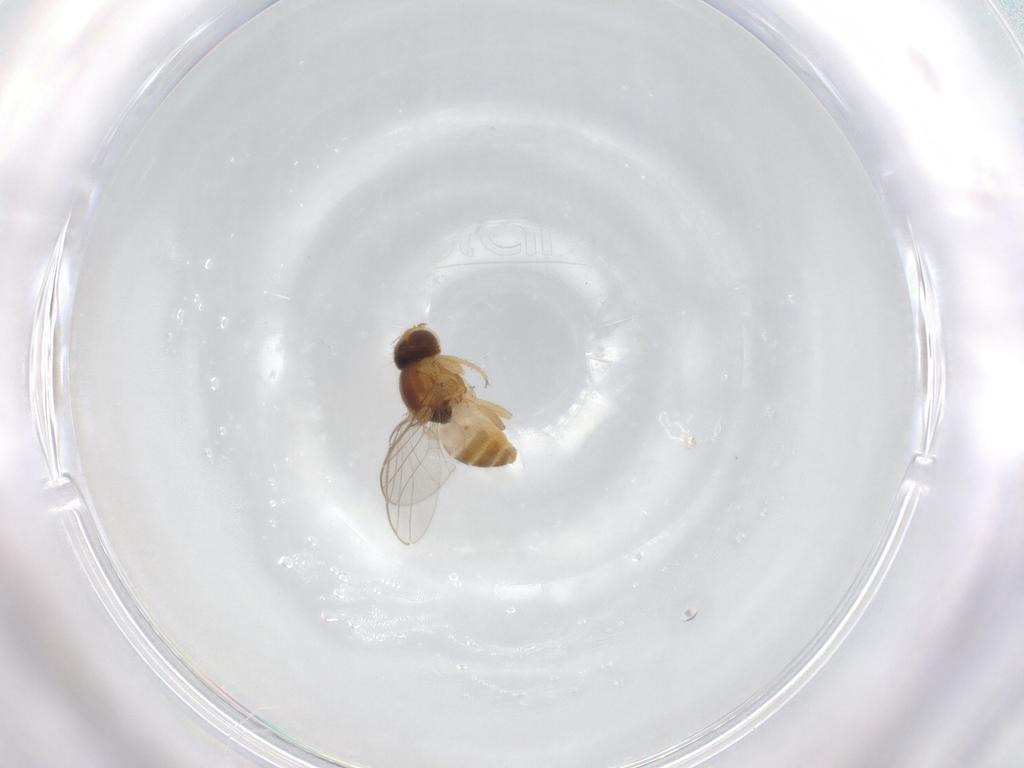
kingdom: Animalia
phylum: Arthropoda
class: Insecta
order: Diptera
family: Chloropidae
